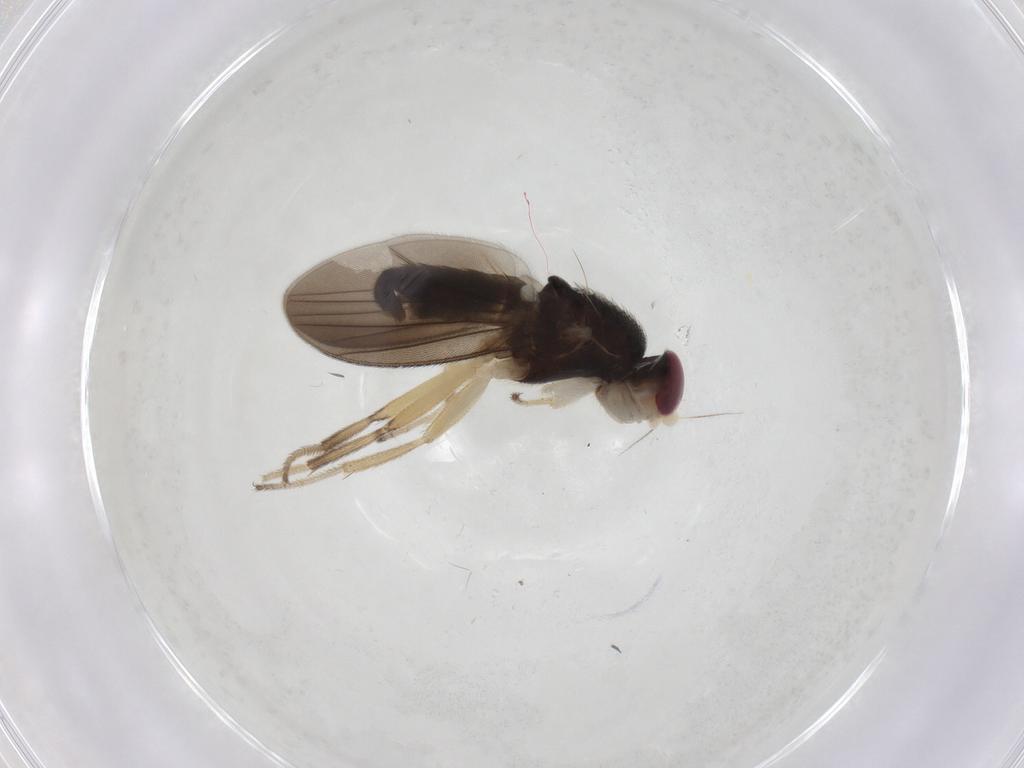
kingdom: Animalia
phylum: Arthropoda
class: Insecta
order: Diptera
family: Clusiidae
